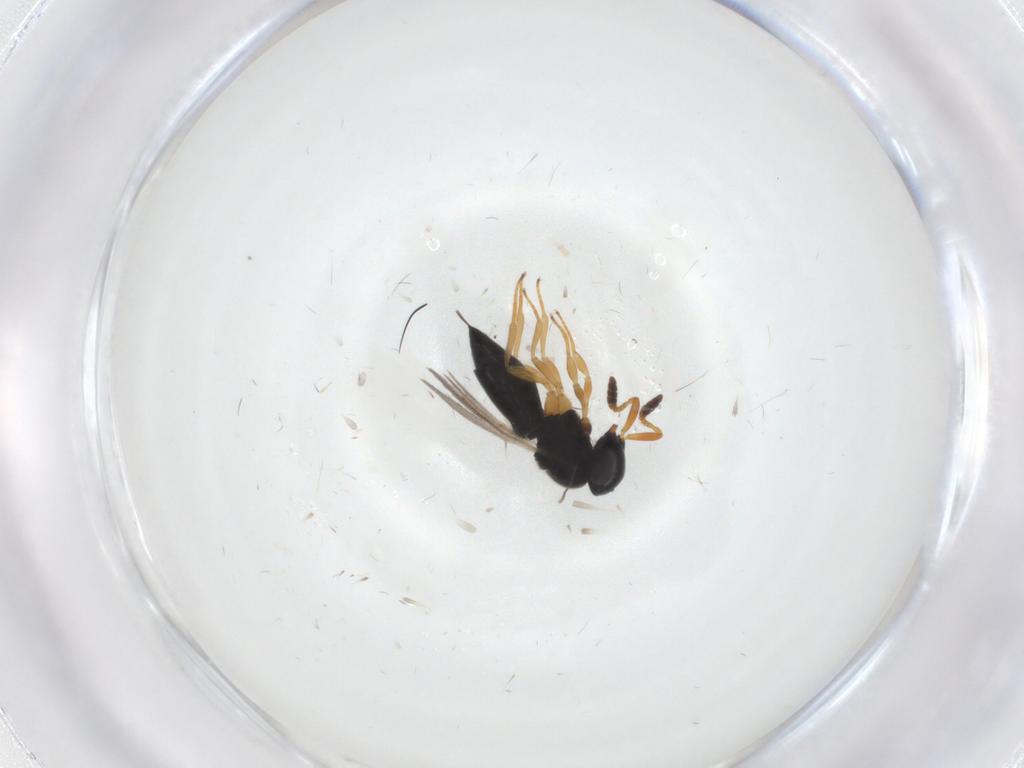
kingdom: Animalia
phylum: Arthropoda
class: Insecta
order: Hymenoptera
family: Scelionidae
